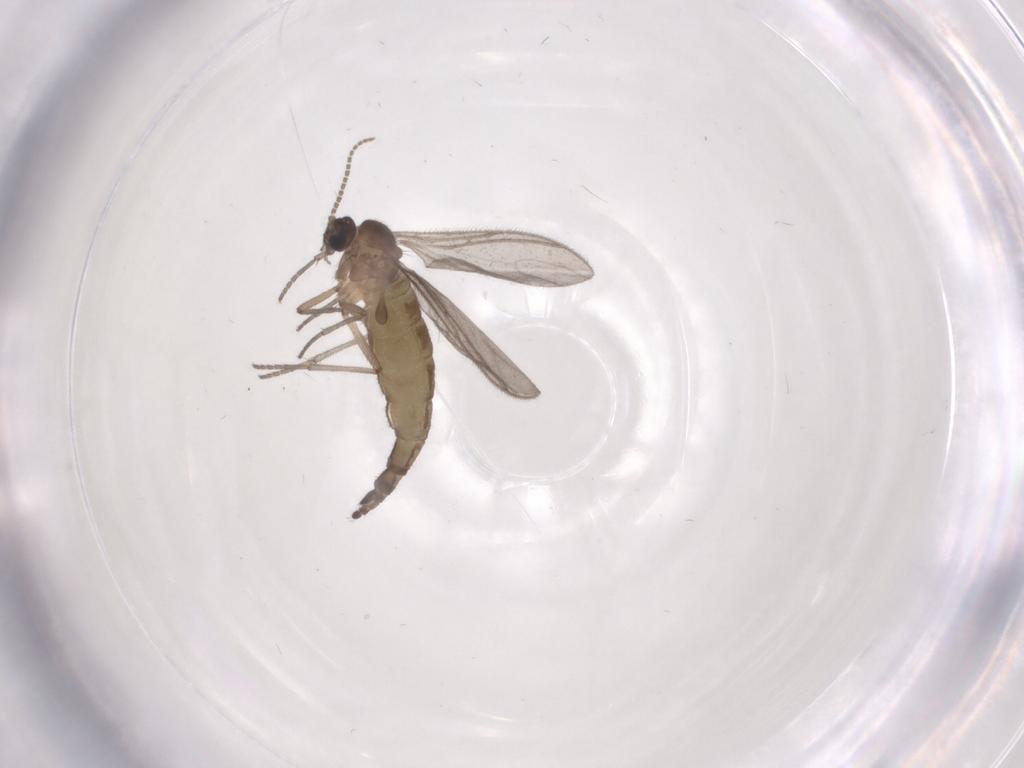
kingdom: Animalia
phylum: Arthropoda
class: Insecta
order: Diptera
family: Sciaridae
